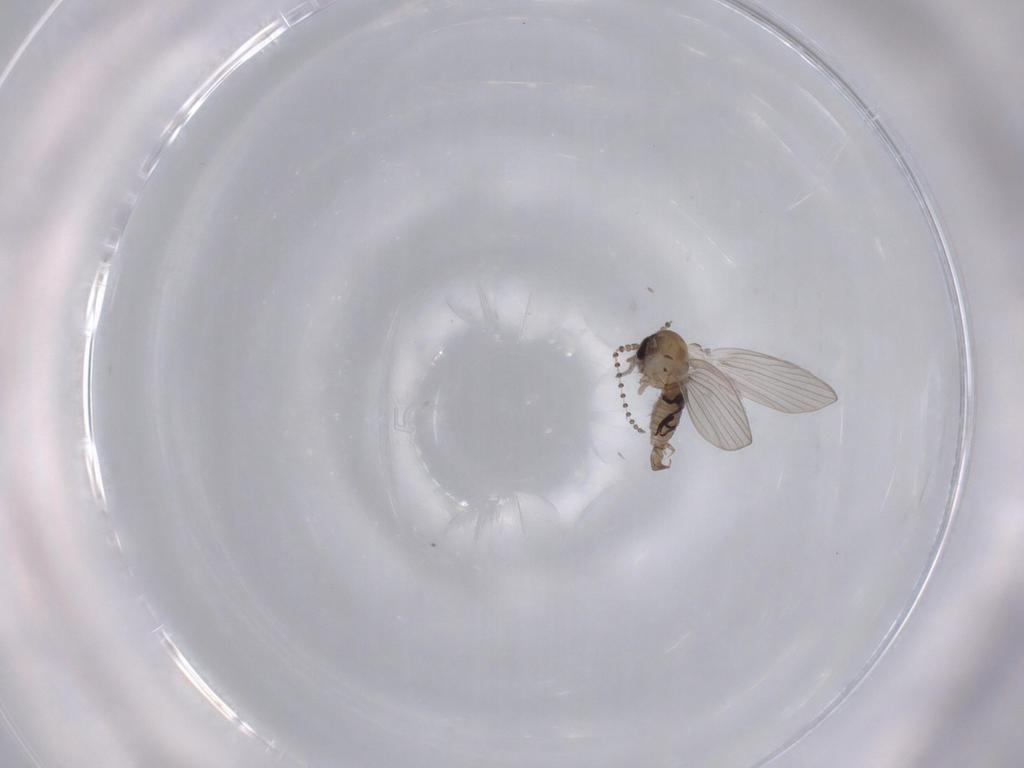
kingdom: Animalia
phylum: Arthropoda
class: Insecta
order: Diptera
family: Psychodidae
